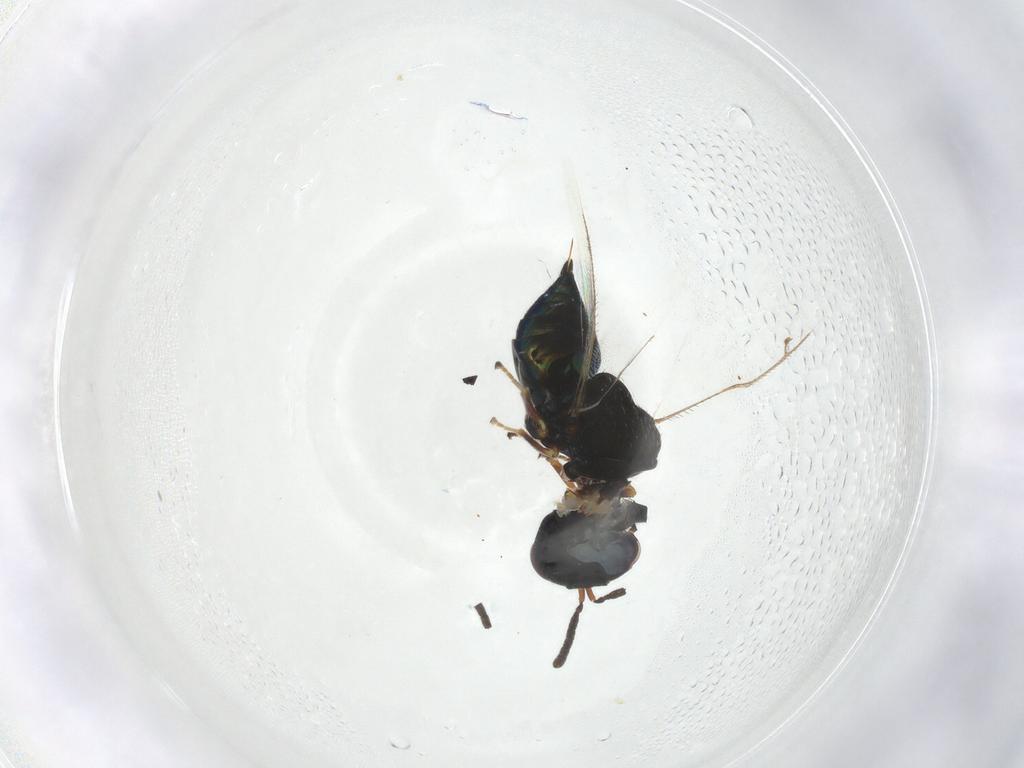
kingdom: Animalia
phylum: Arthropoda
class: Insecta
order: Hymenoptera
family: Pteromalidae
